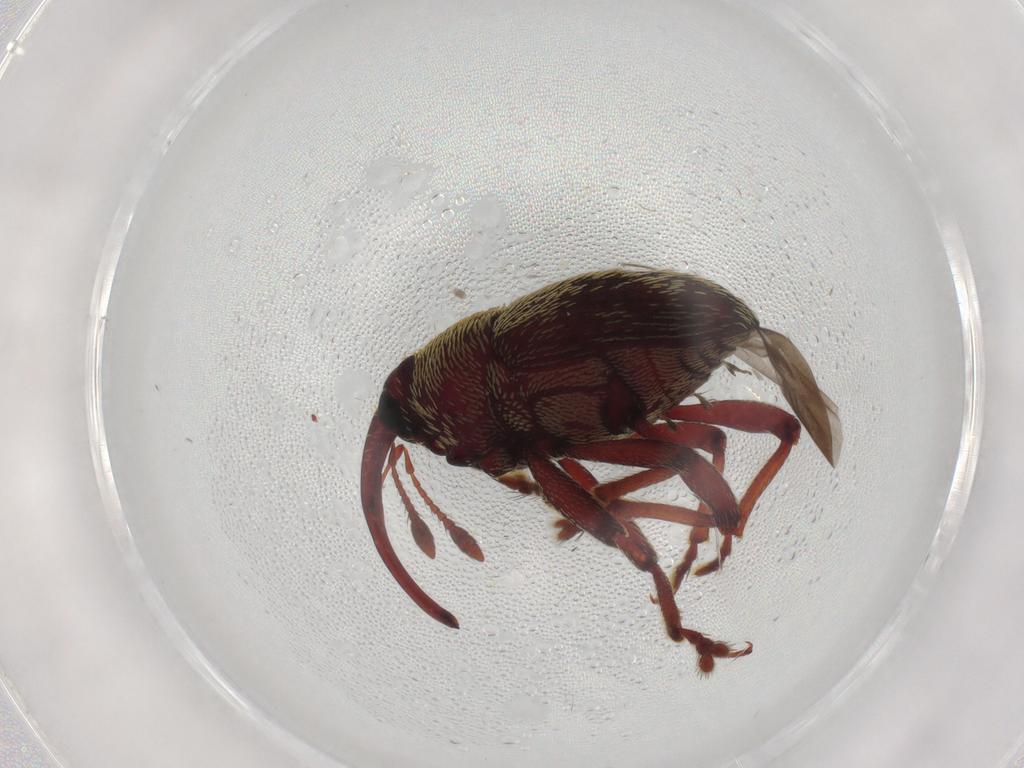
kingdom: Animalia
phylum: Arthropoda
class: Insecta
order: Coleoptera
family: Curculionidae
